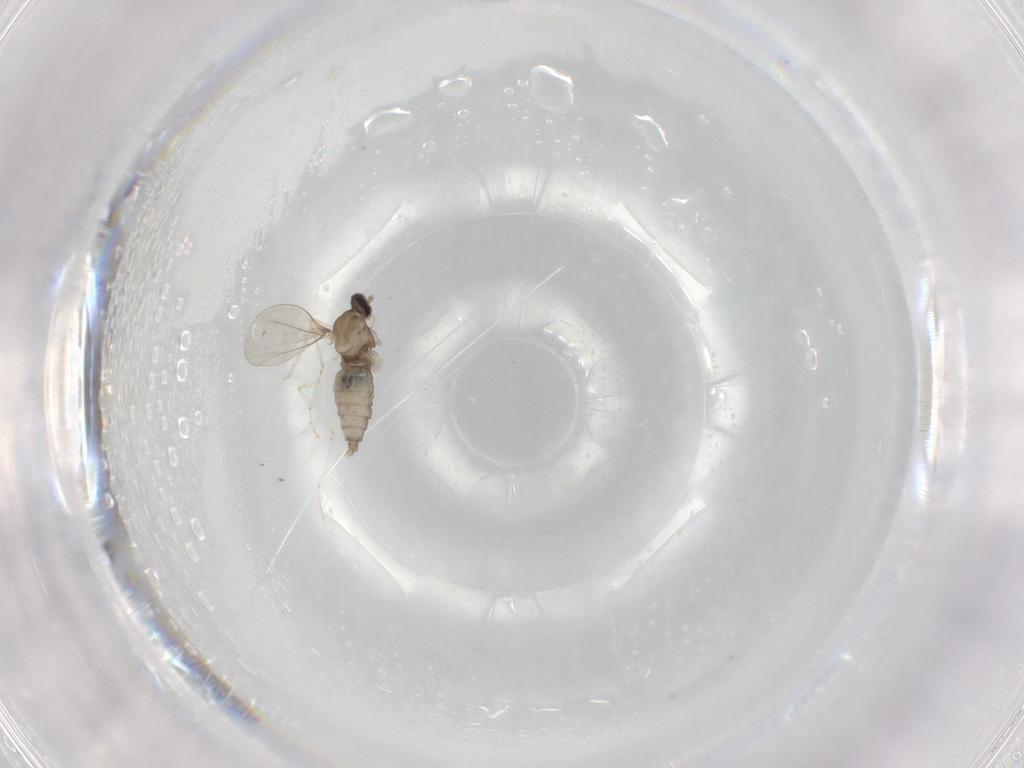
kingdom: Animalia
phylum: Arthropoda
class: Insecta
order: Diptera
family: Sciaridae
